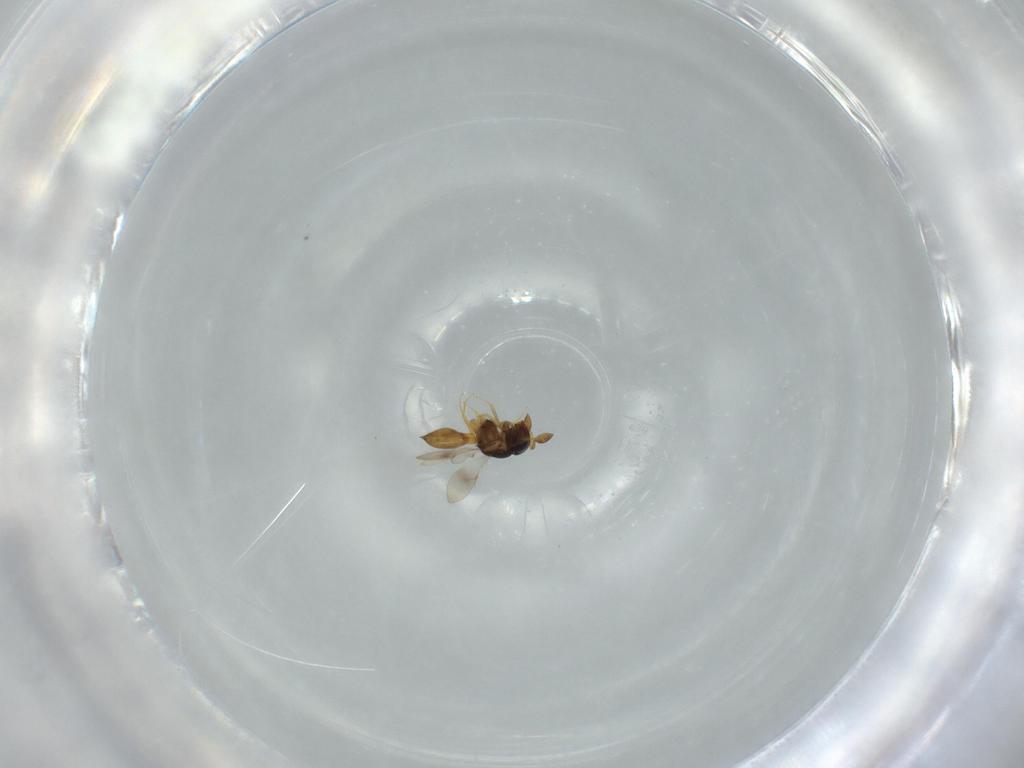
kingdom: Animalia
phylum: Arthropoda
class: Insecta
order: Hymenoptera
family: Scelionidae
